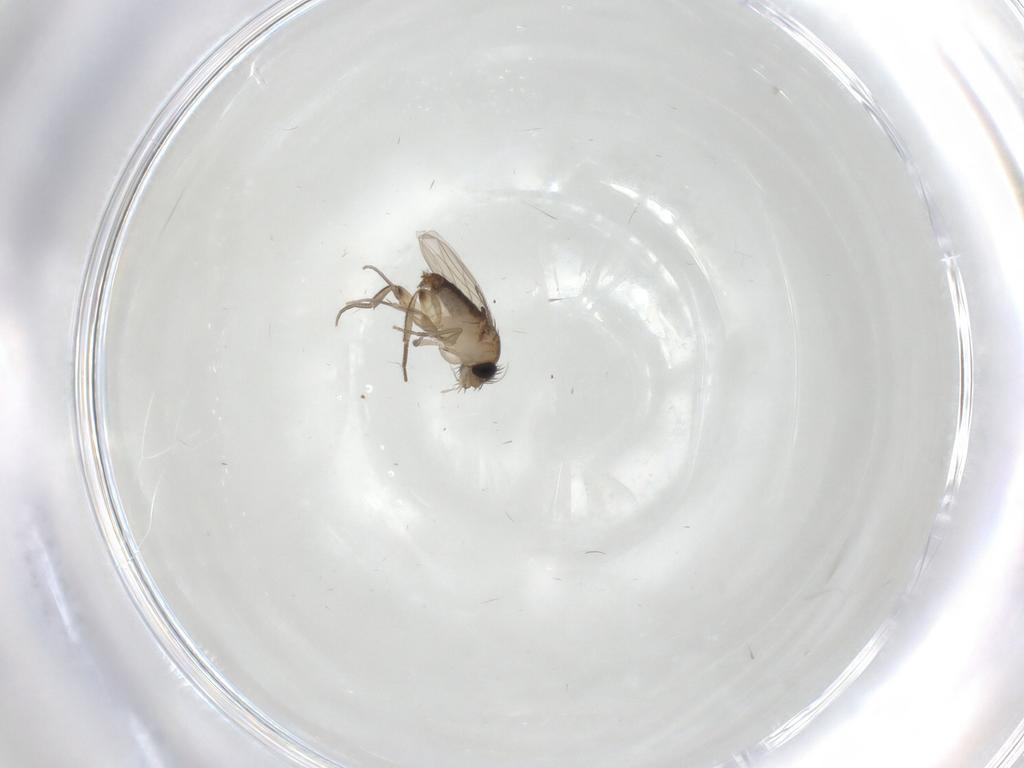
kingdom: Animalia
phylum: Arthropoda
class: Insecta
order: Diptera
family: Phoridae
